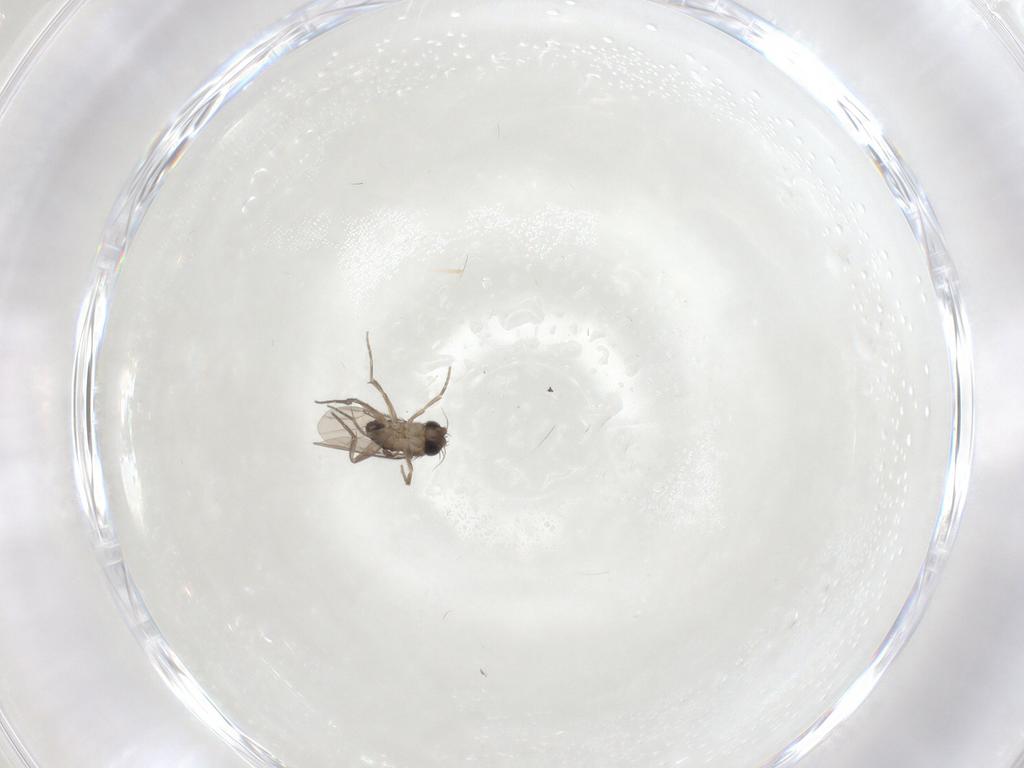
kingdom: Animalia
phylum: Arthropoda
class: Insecta
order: Diptera
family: Phoridae
